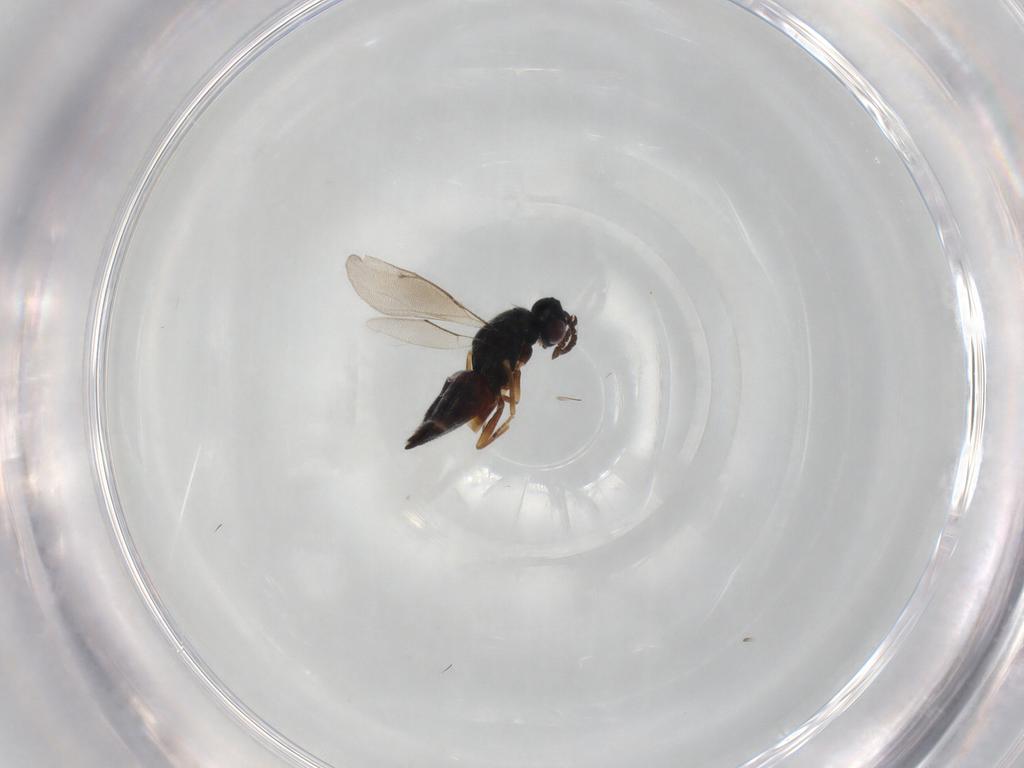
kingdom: Animalia
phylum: Arthropoda
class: Insecta
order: Hymenoptera
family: Eulophidae
